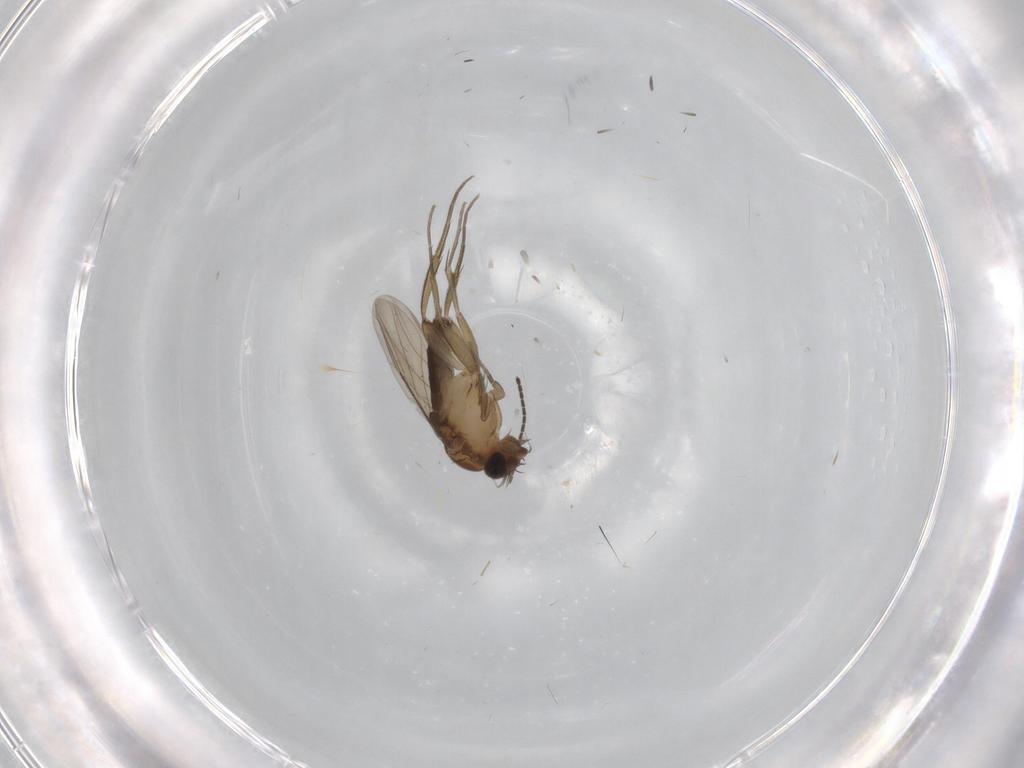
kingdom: Animalia
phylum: Arthropoda
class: Insecta
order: Diptera
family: Phoridae
